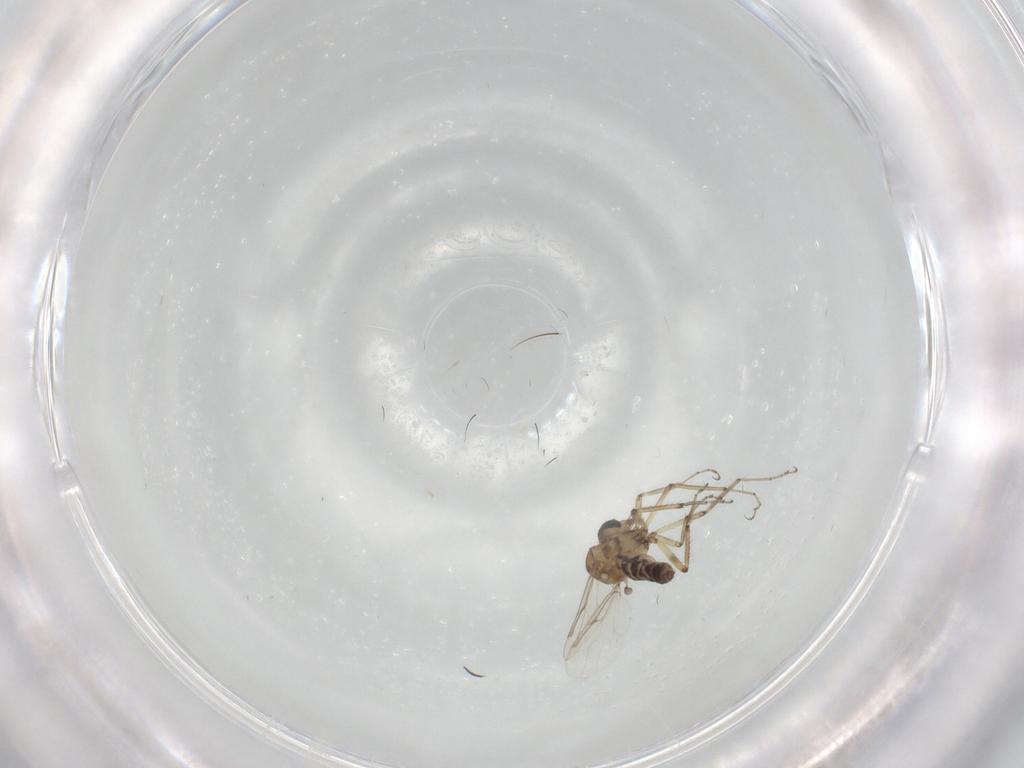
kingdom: Animalia
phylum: Arthropoda
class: Insecta
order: Diptera
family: Ceratopogonidae
